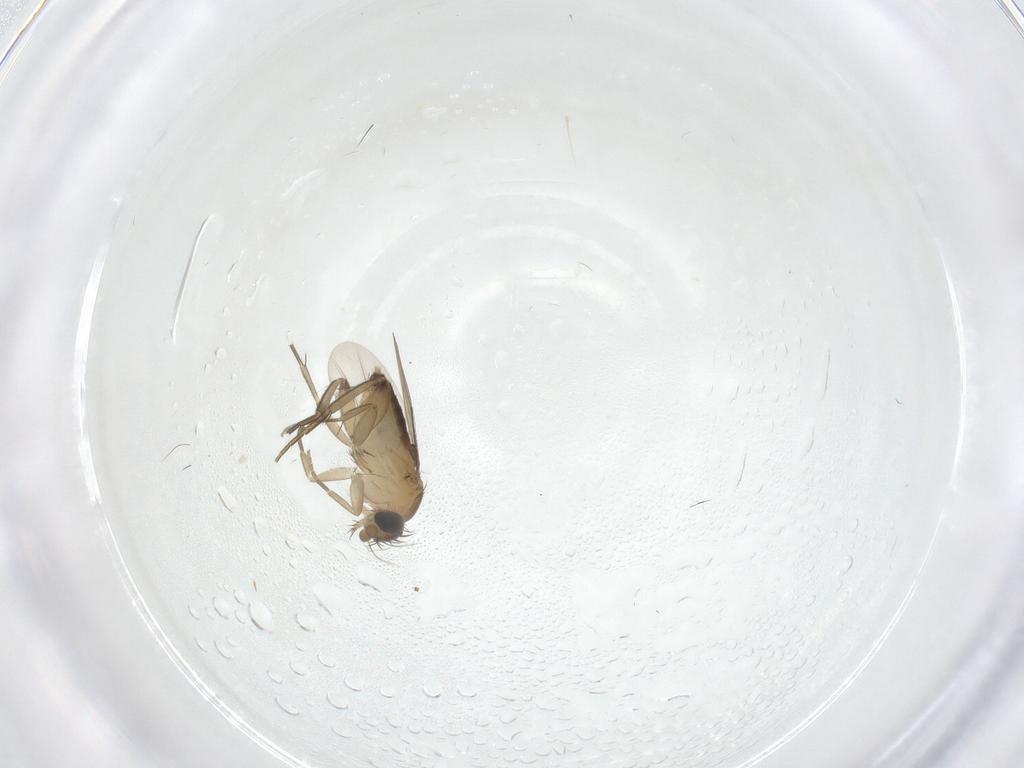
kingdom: Animalia
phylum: Arthropoda
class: Insecta
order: Diptera
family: Phoridae
